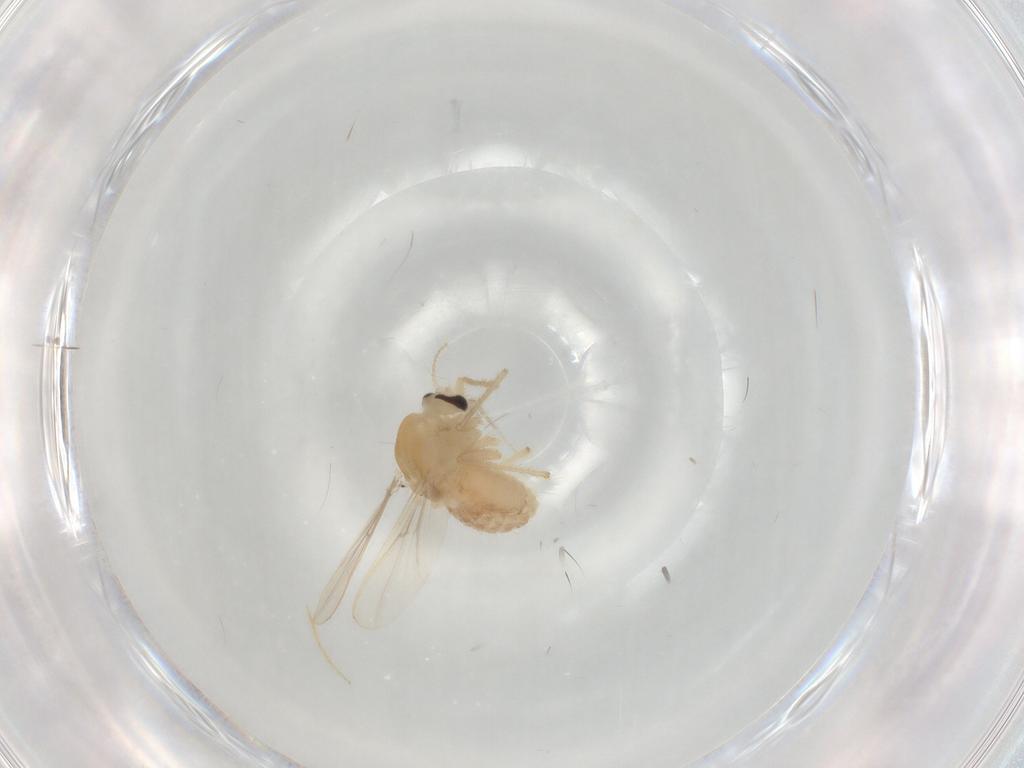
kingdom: Animalia
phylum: Arthropoda
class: Insecta
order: Diptera
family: Chironomidae
